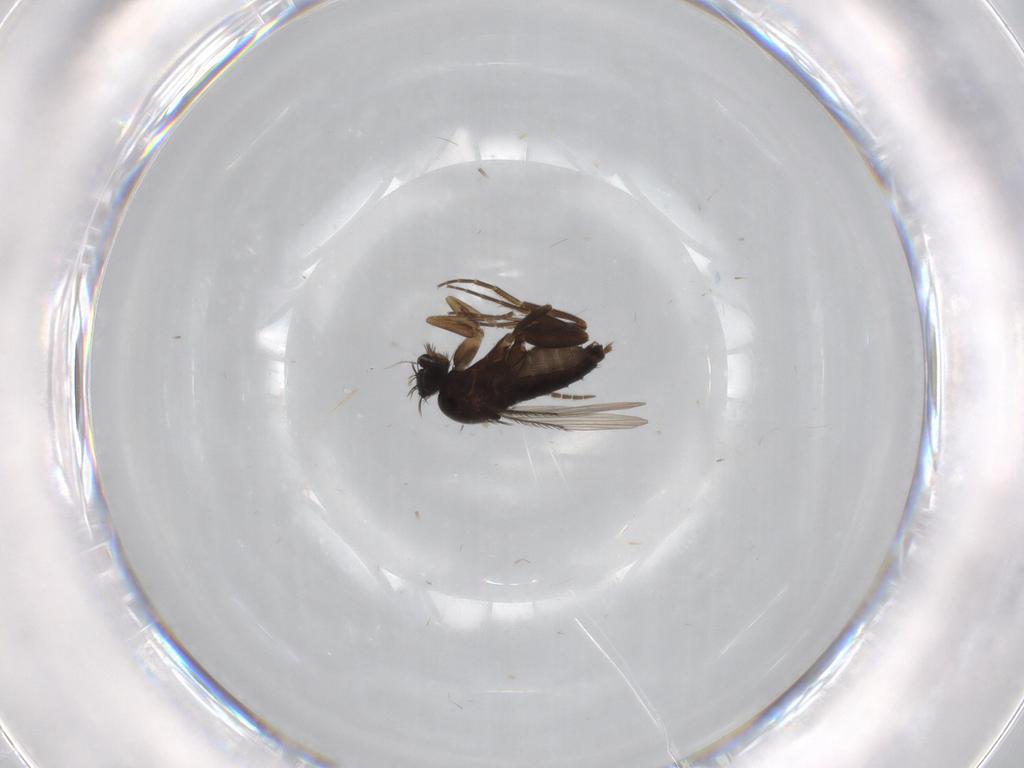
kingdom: Animalia
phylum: Arthropoda
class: Insecta
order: Diptera
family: Phoridae
